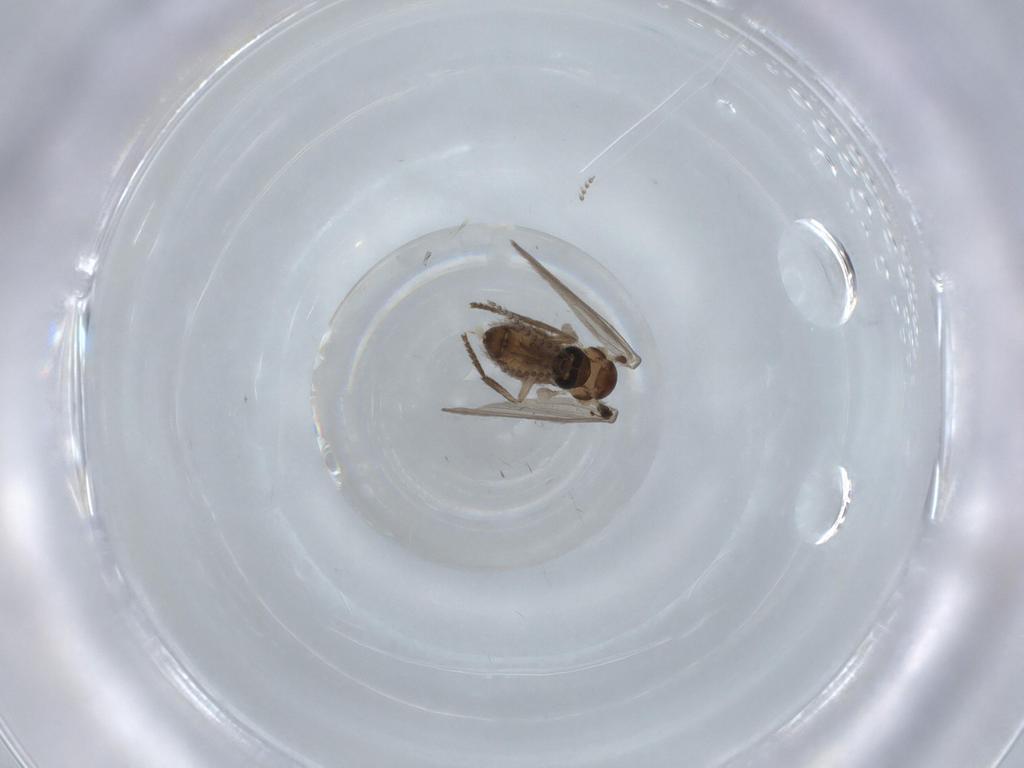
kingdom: Animalia
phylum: Arthropoda
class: Insecta
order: Diptera
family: Psychodidae
